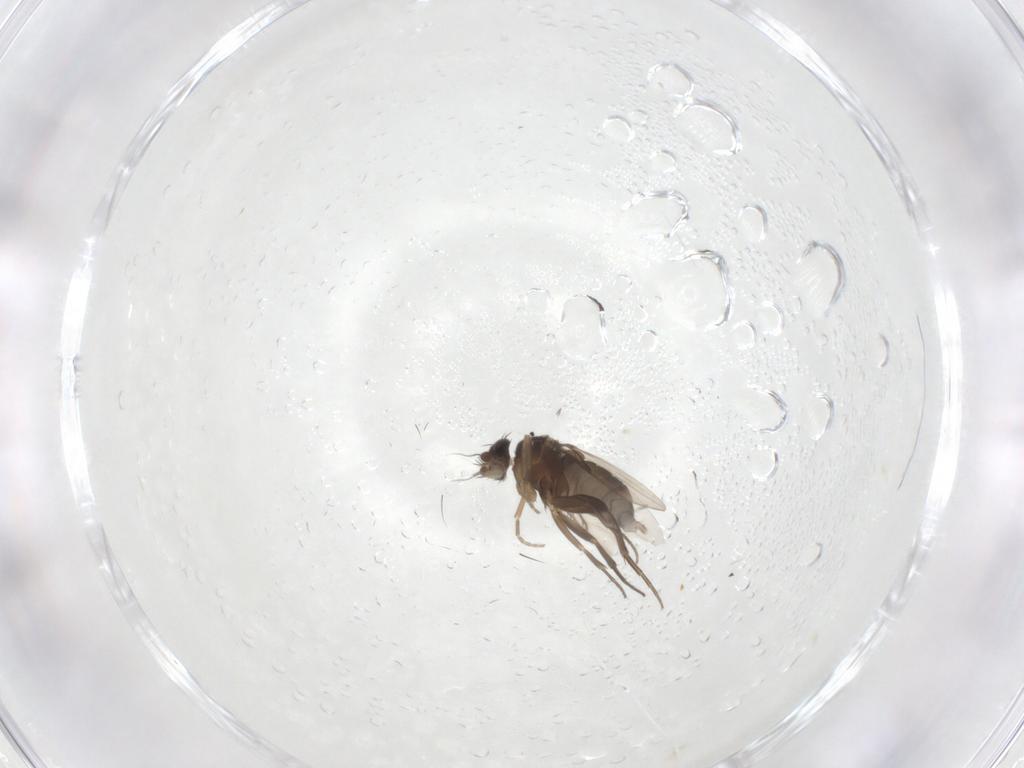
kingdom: Animalia
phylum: Arthropoda
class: Insecta
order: Diptera
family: Phoridae
